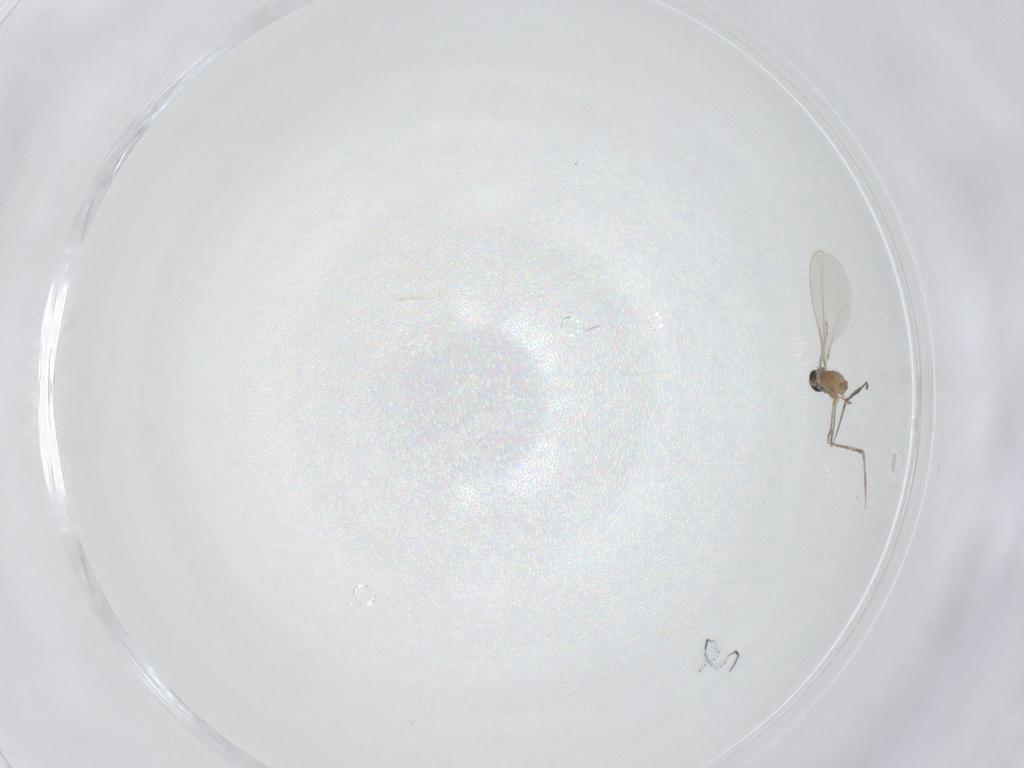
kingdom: Animalia
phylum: Arthropoda
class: Insecta
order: Diptera
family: Cecidomyiidae
